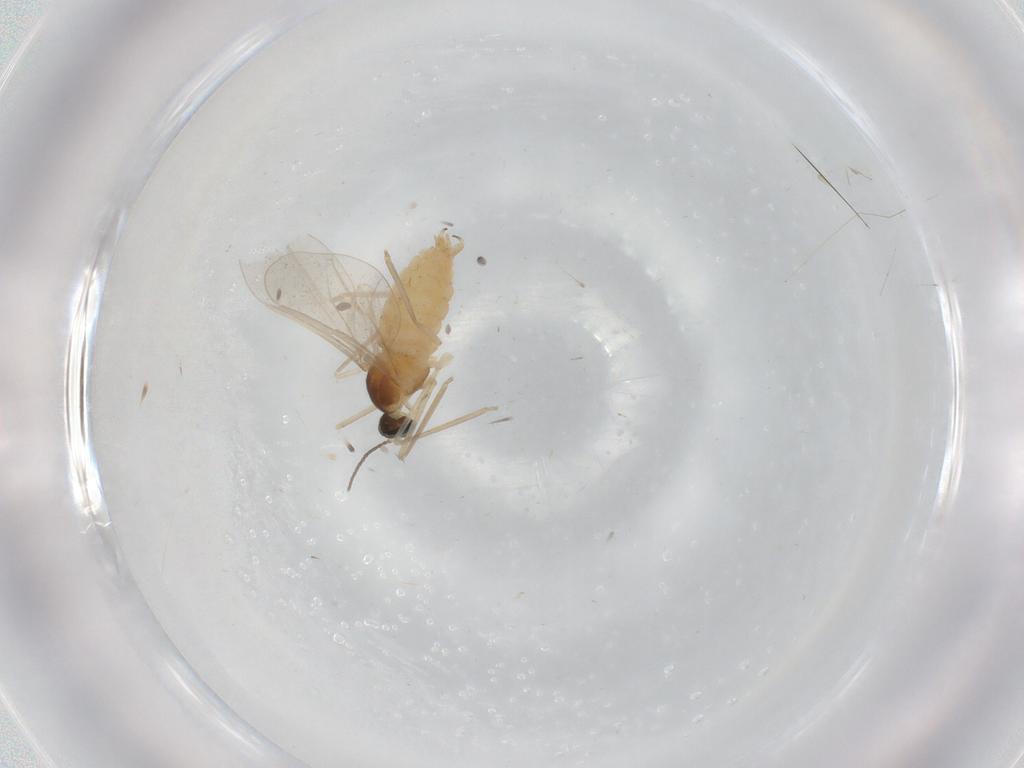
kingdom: Animalia
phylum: Arthropoda
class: Insecta
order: Diptera
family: Cecidomyiidae
